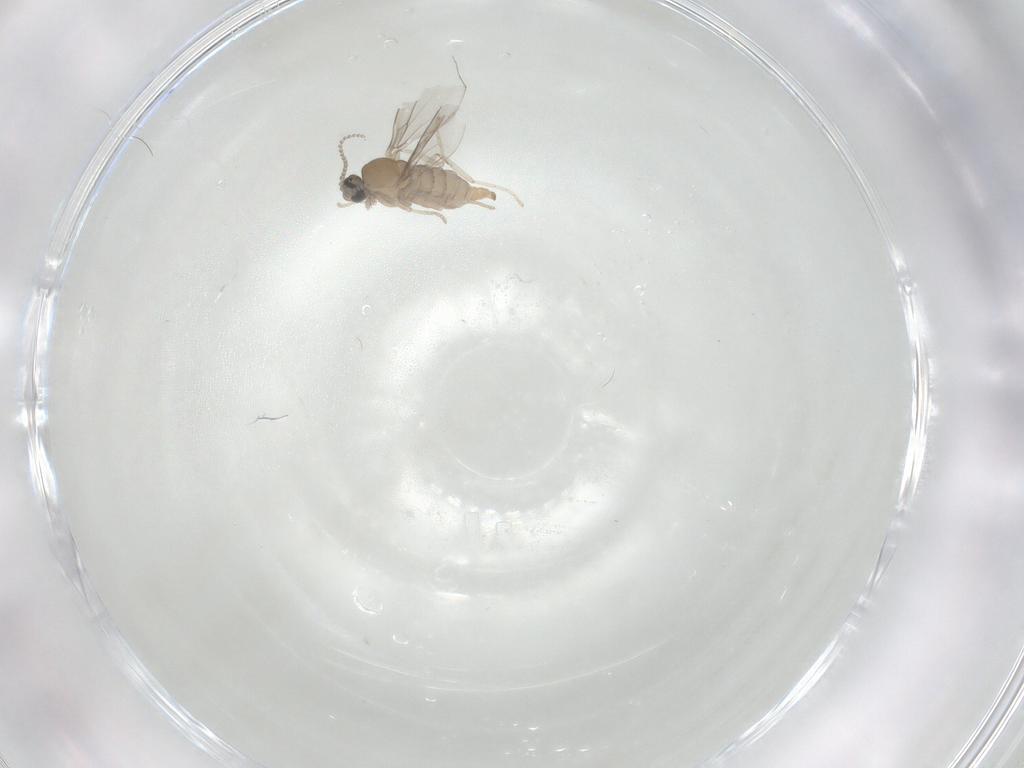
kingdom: Animalia
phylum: Arthropoda
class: Insecta
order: Diptera
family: Cecidomyiidae
